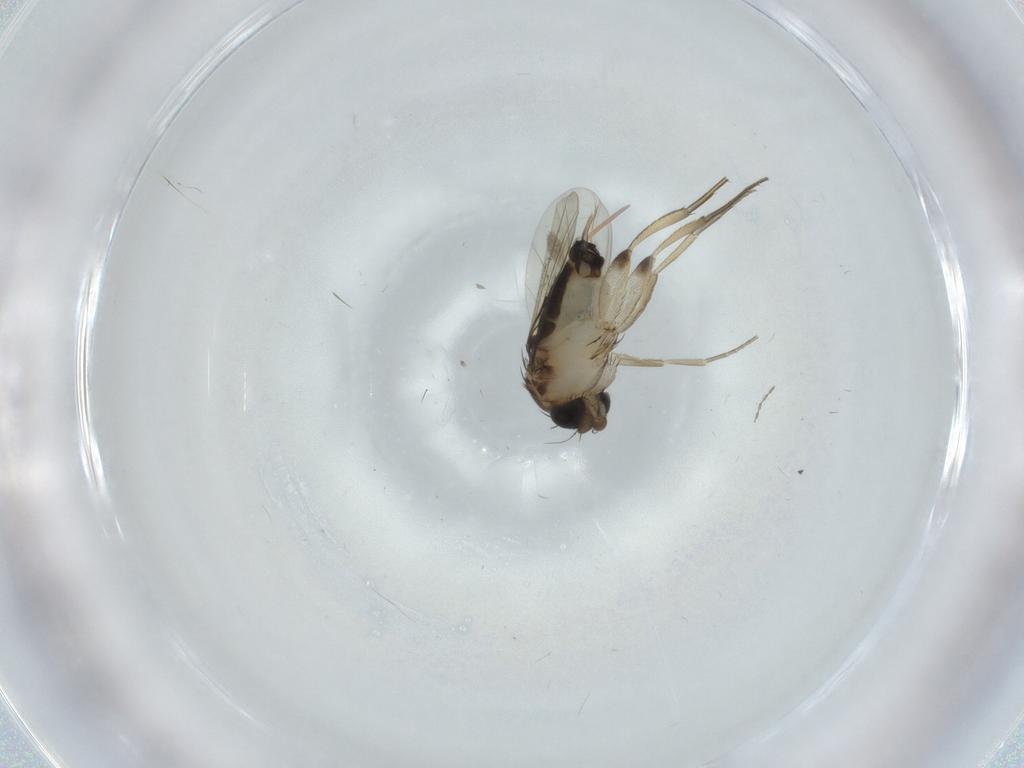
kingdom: Animalia
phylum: Arthropoda
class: Insecta
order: Diptera
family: Phoridae
